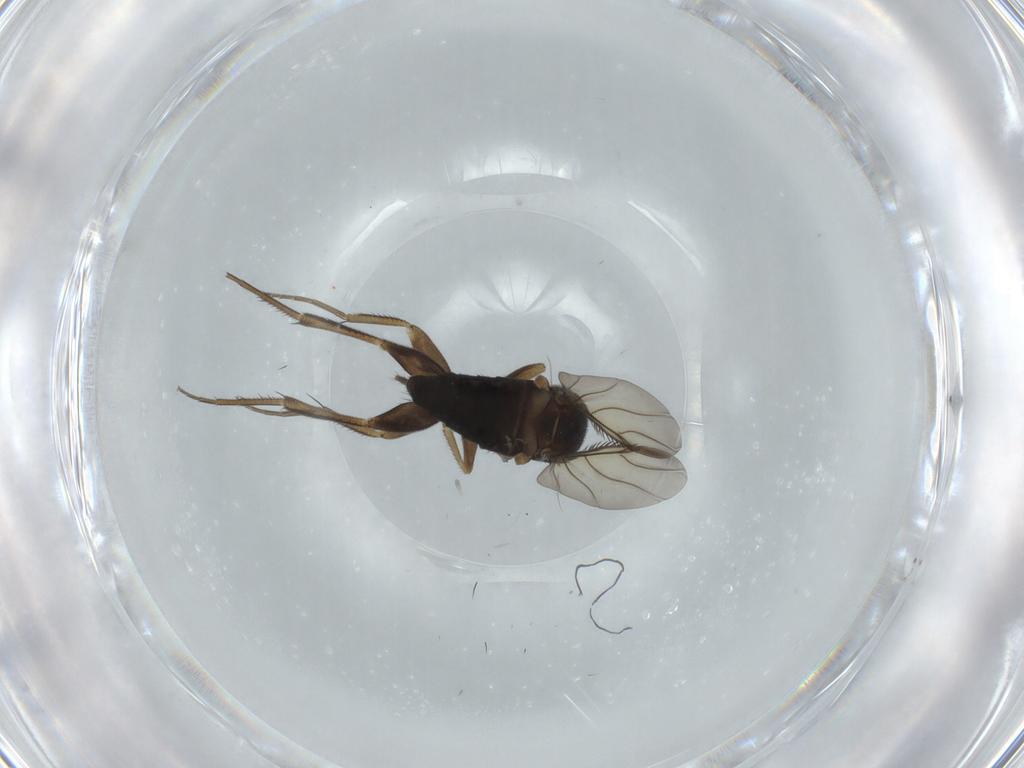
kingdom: Animalia
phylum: Arthropoda
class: Insecta
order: Diptera
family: Phoridae
